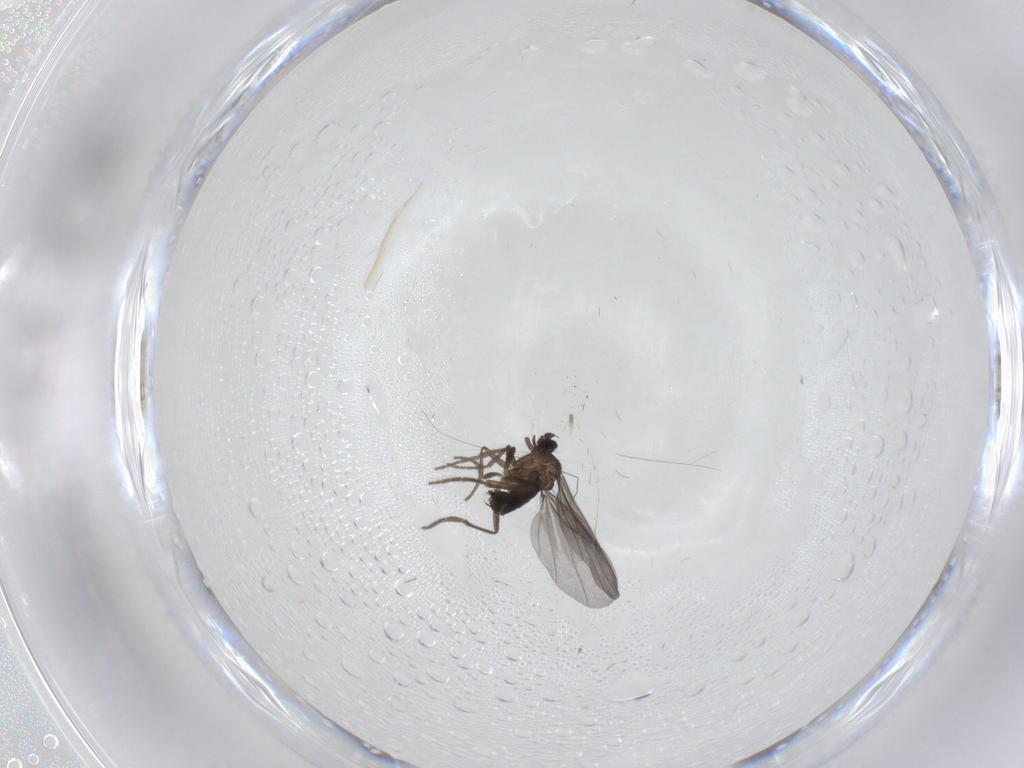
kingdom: Animalia
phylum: Arthropoda
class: Insecta
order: Diptera
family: Phoridae
